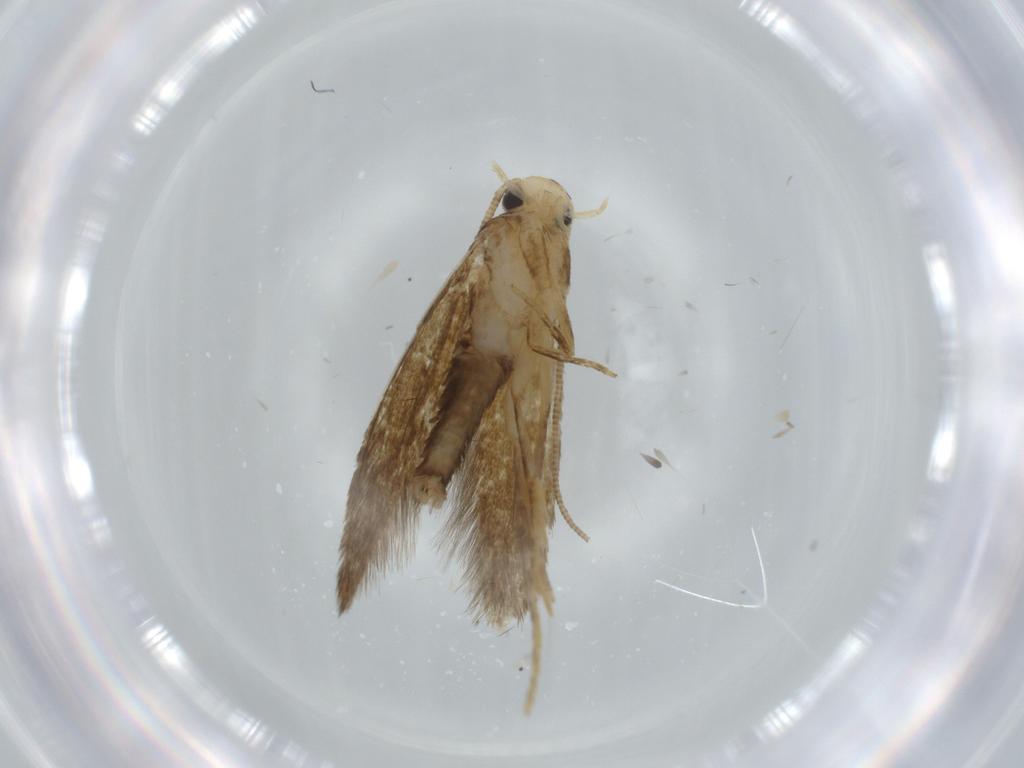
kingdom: Animalia
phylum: Arthropoda
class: Insecta
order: Lepidoptera
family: Tineidae
